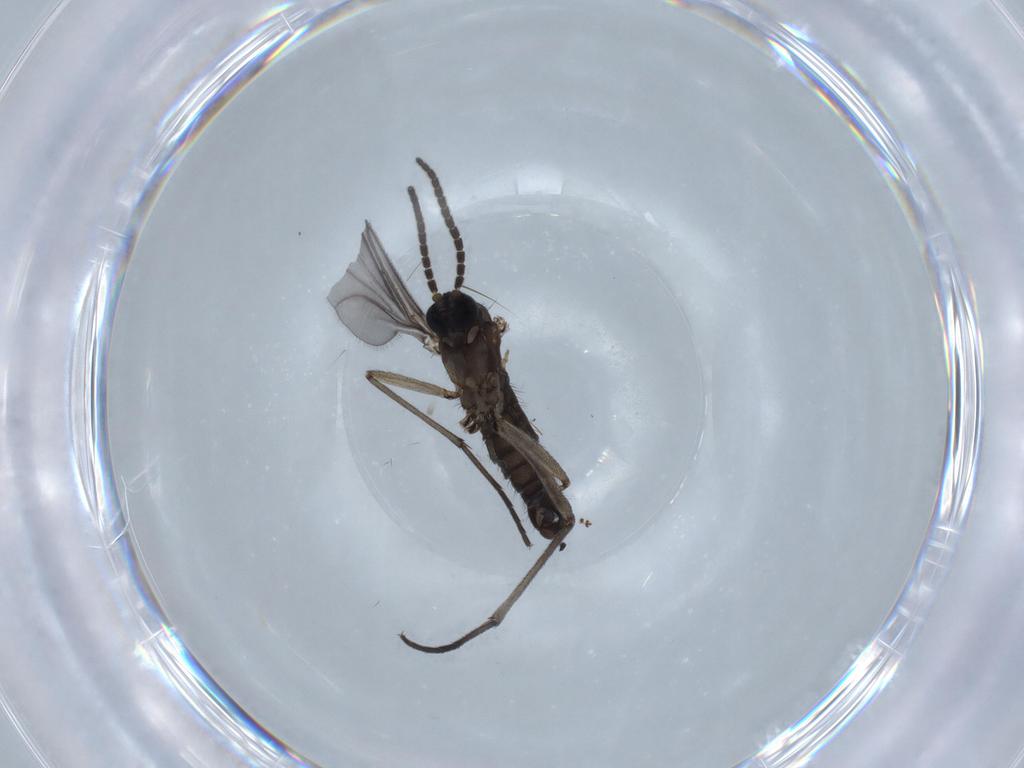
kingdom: Animalia
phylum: Arthropoda
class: Insecta
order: Diptera
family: Sciaridae
